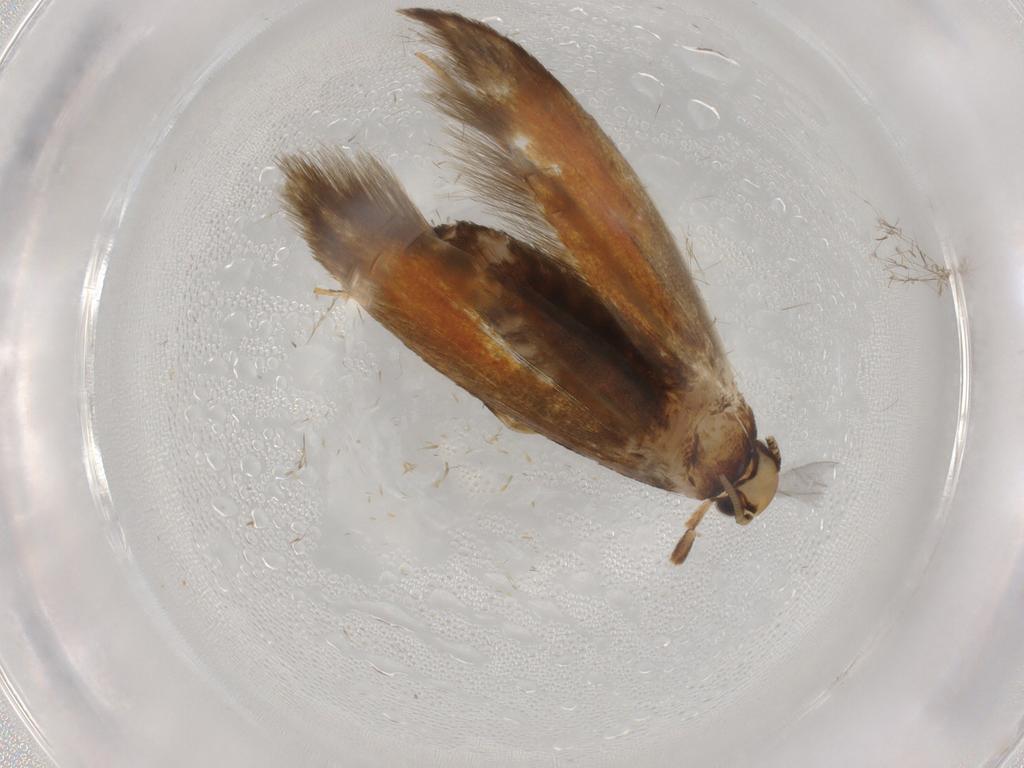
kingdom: Animalia
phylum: Arthropoda
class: Insecta
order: Lepidoptera
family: Tineidae
